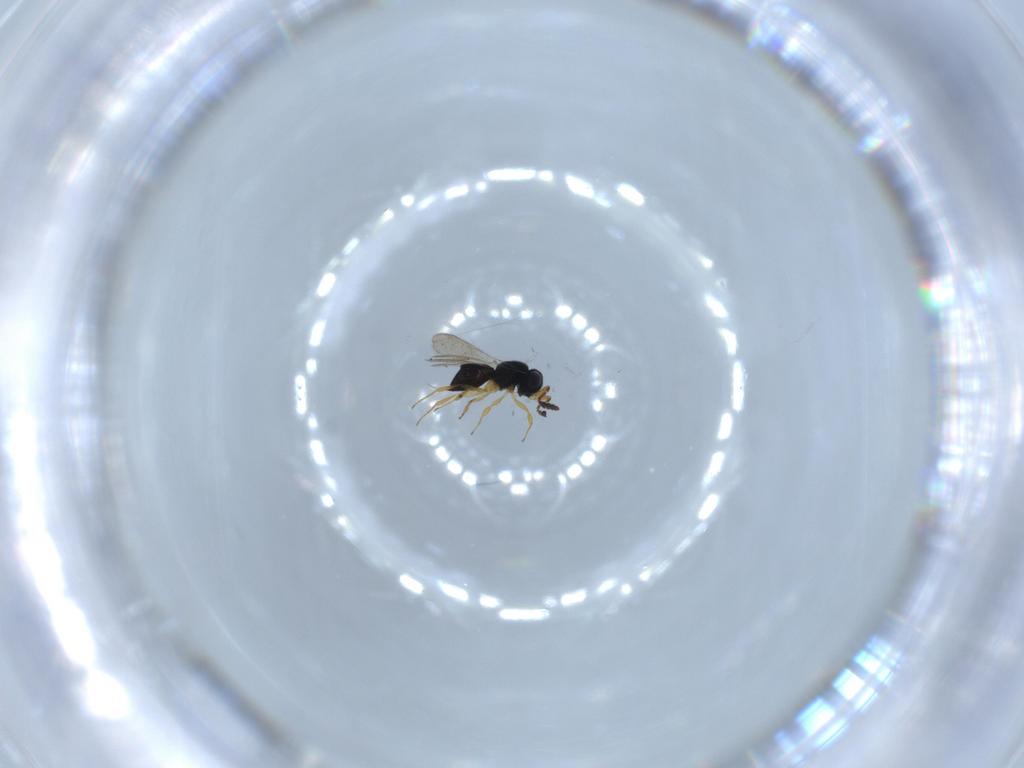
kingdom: Animalia
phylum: Arthropoda
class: Insecta
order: Hymenoptera
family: Scelionidae
